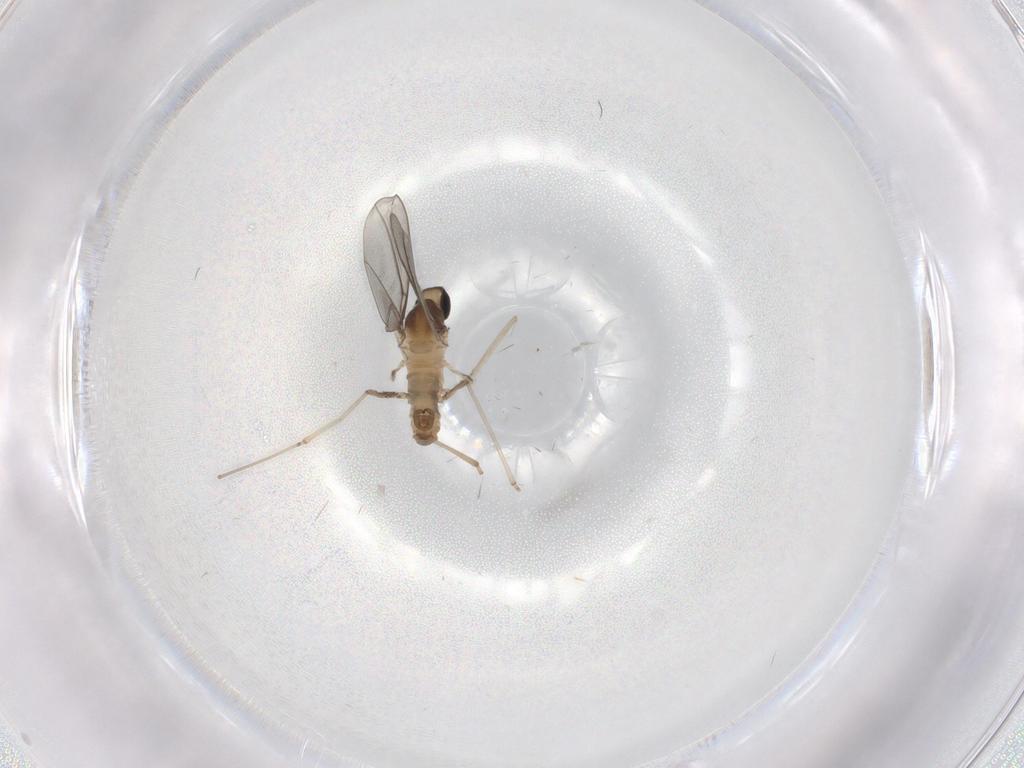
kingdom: Animalia
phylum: Arthropoda
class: Insecta
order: Diptera
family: Cecidomyiidae
